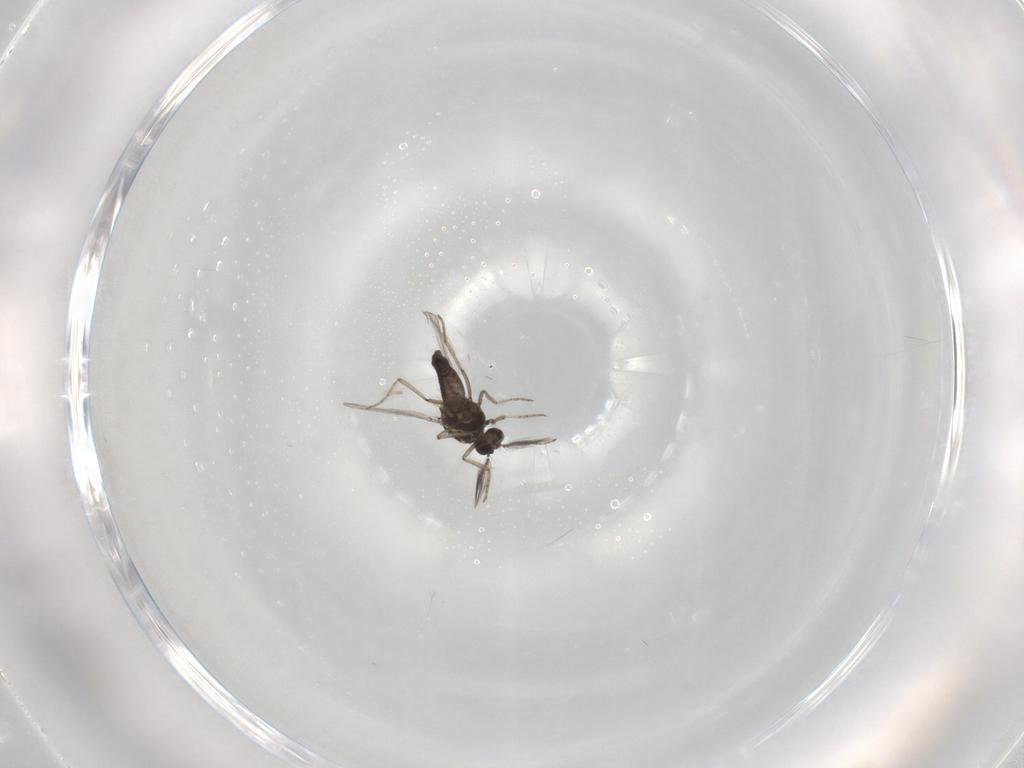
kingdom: Animalia
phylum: Arthropoda
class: Insecta
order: Diptera
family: Ceratopogonidae
